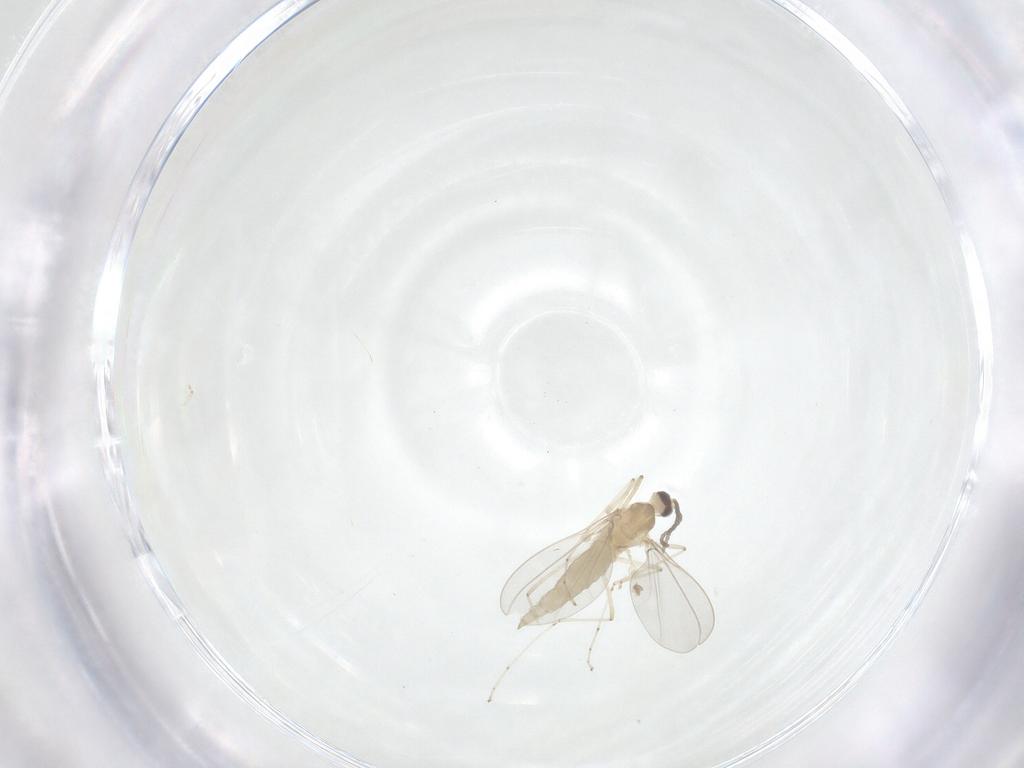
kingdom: Animalia
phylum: Arthropoda
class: Insecta
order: Diptera
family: Cecidomyiidae
